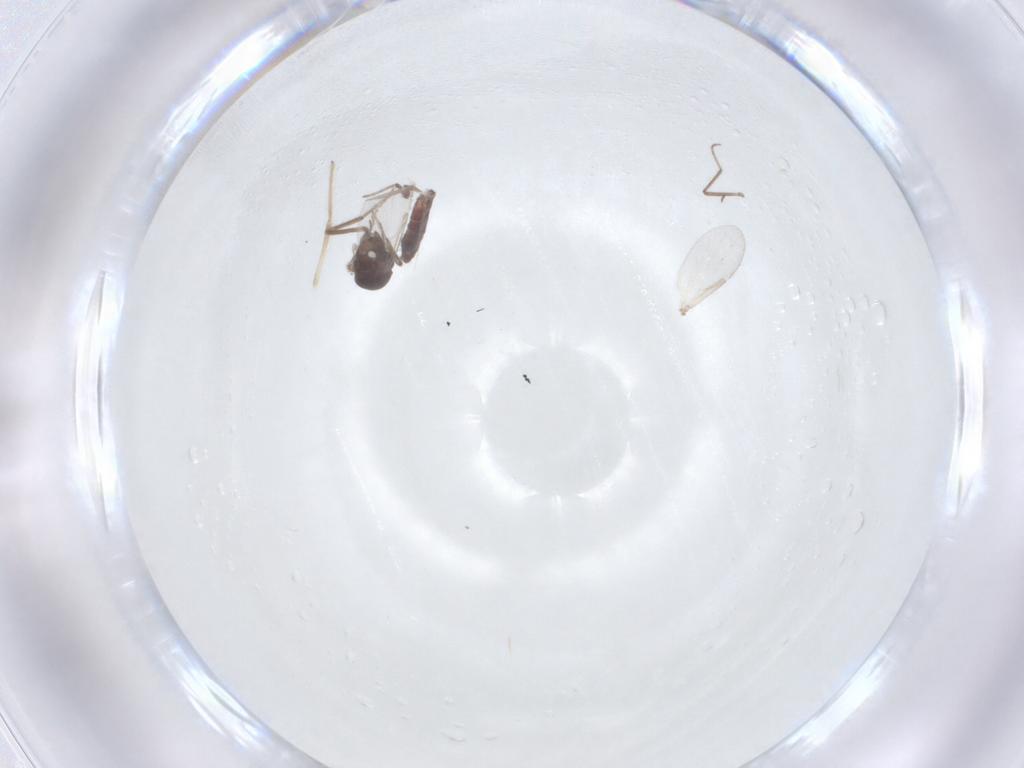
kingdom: Animalia
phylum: Arthropoda
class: Insecta
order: Diptera
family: Ceratopogonidae
